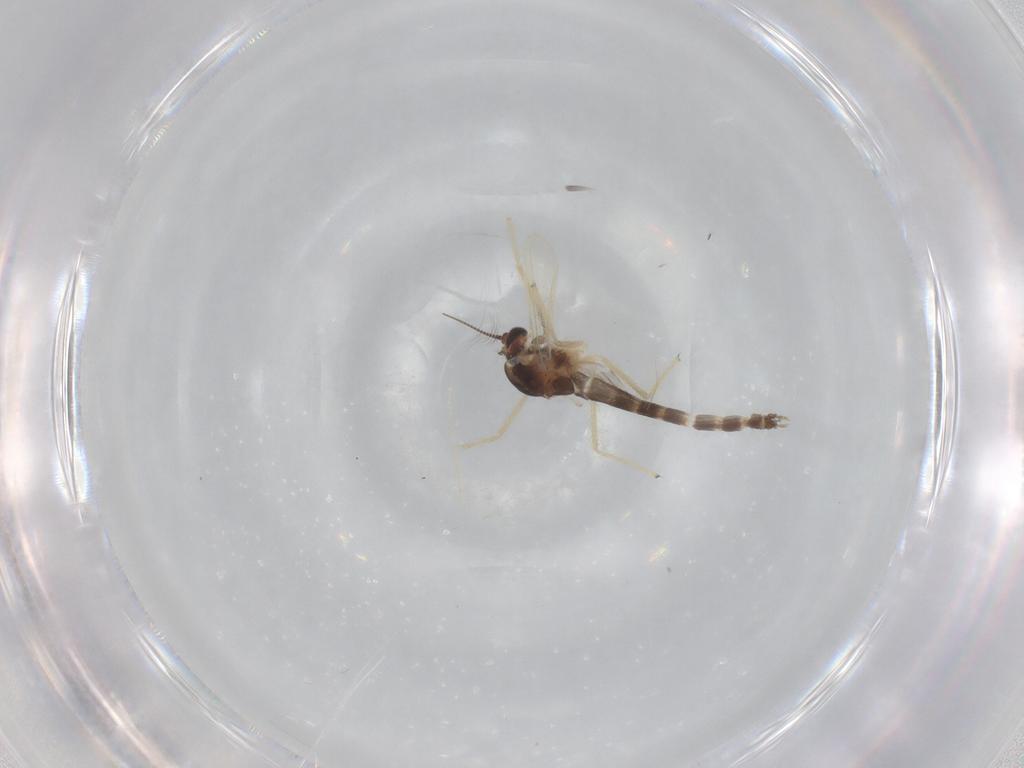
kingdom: Animalia
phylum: Arthropoda
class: Insecta
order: Diptera
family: Chironomidae
